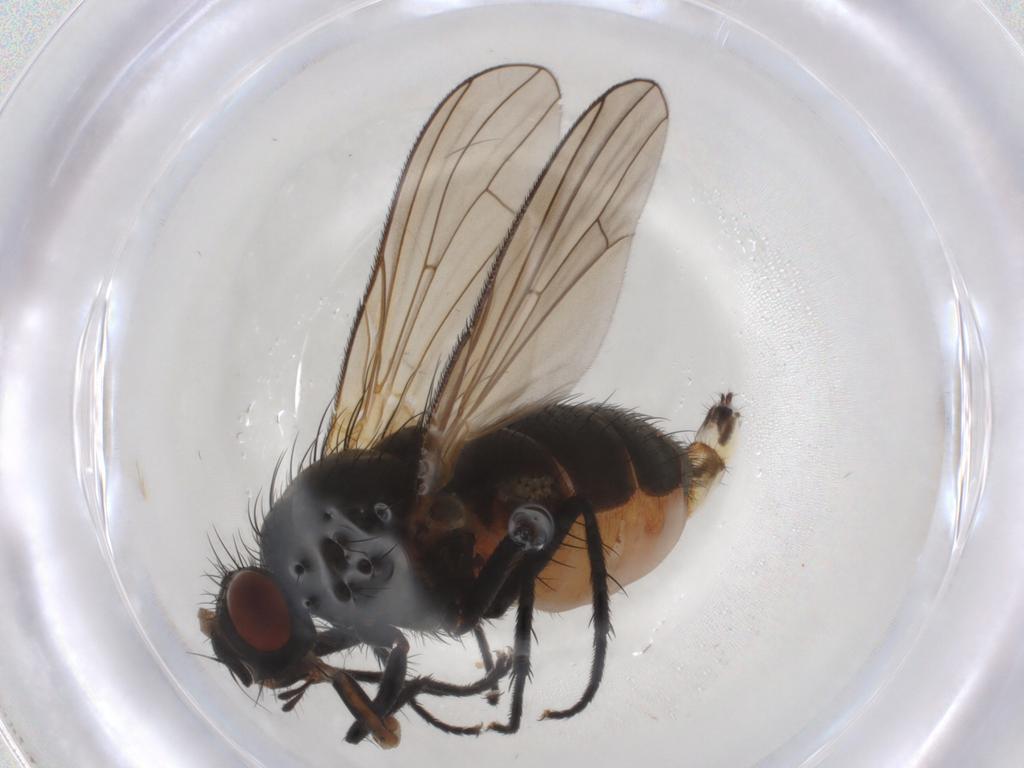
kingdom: Animalia
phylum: Arthropoda
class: Insecta
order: Diptera
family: Anthomyiidae
